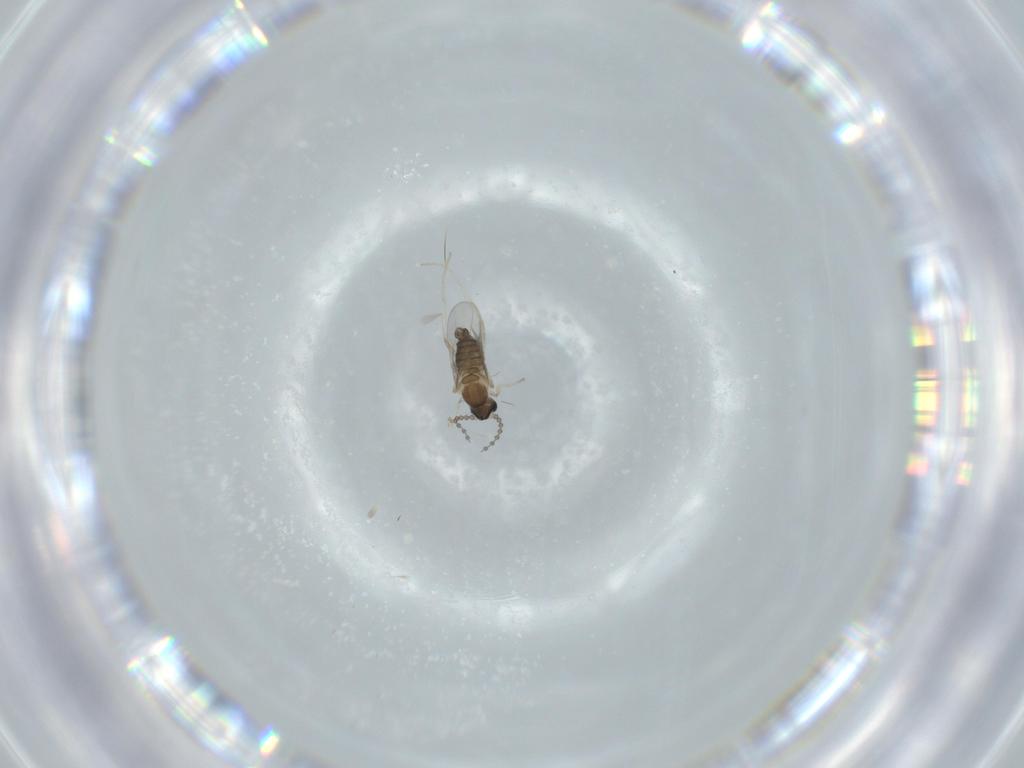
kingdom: Animalia
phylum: Arthropoda
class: Insecta
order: Diptera
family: Cecidomyiidae
